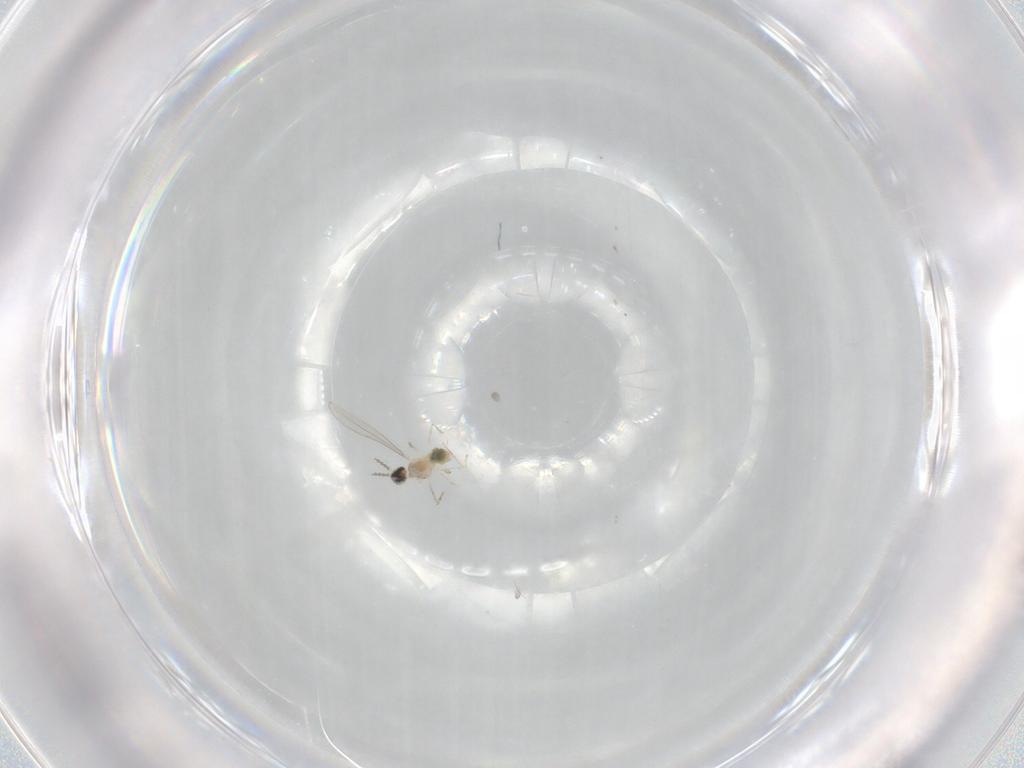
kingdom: Animalia
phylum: Arthropoda
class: Insecta
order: Diptera
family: Cecidomyiidae
